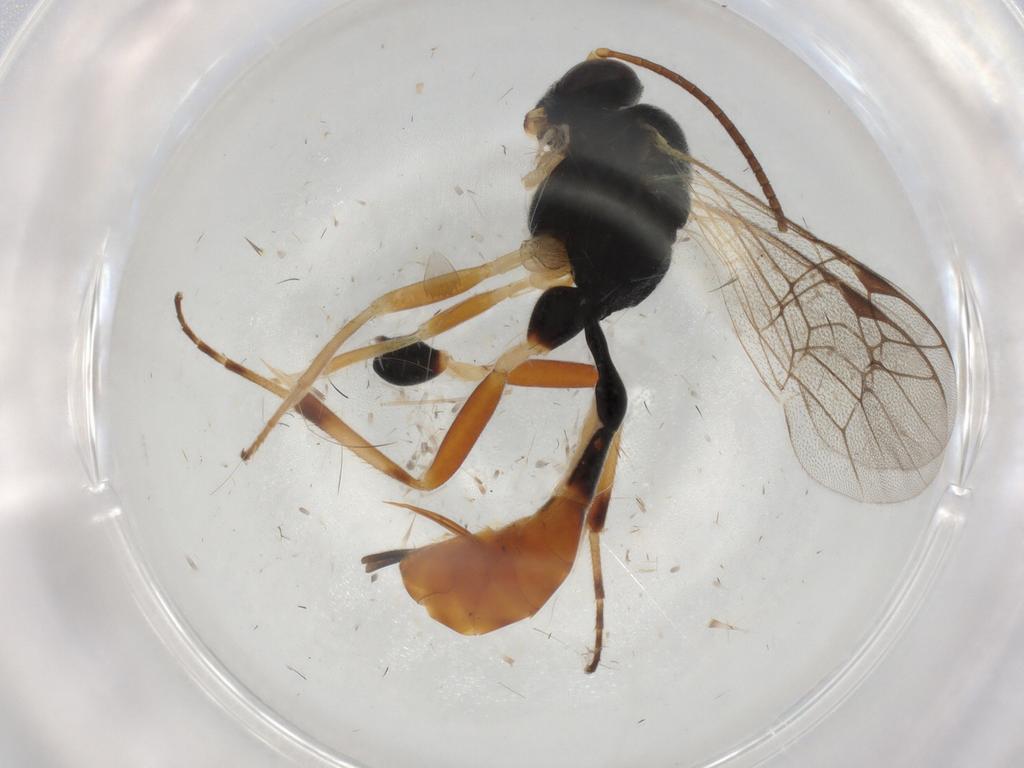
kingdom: Animalia
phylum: Arthropoda
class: Insecta
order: Hymenoptera
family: Ichneumonidae
